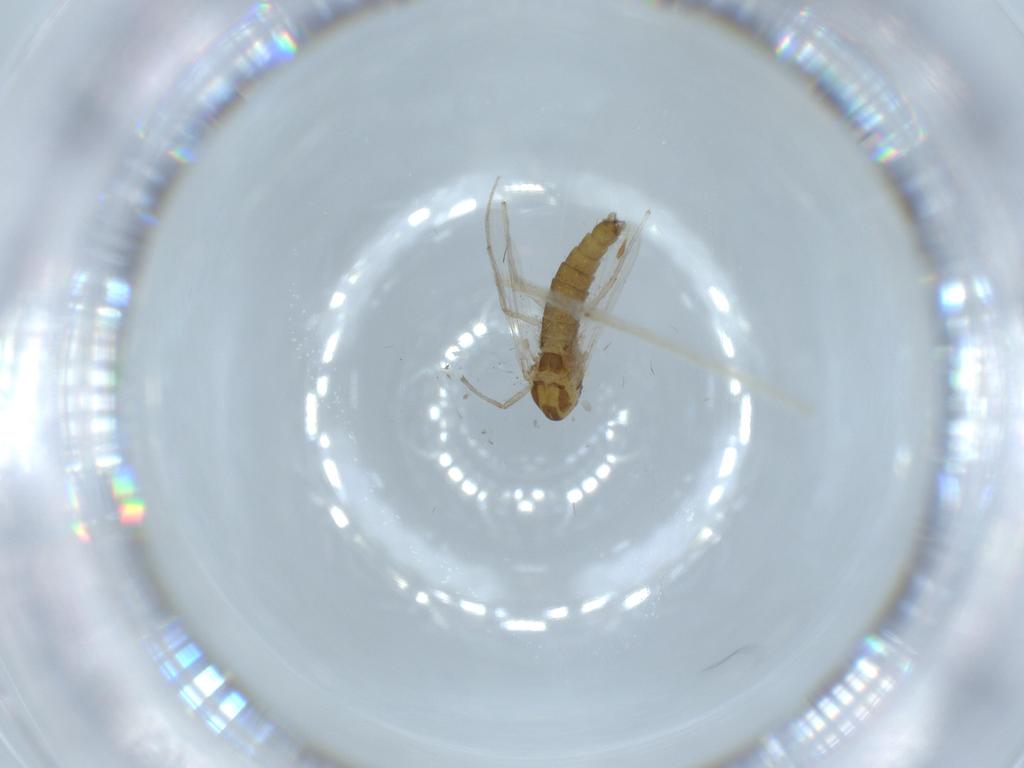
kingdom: Animalia
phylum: Arthropoda
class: Insecta
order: Diptera
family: Chironomidae
